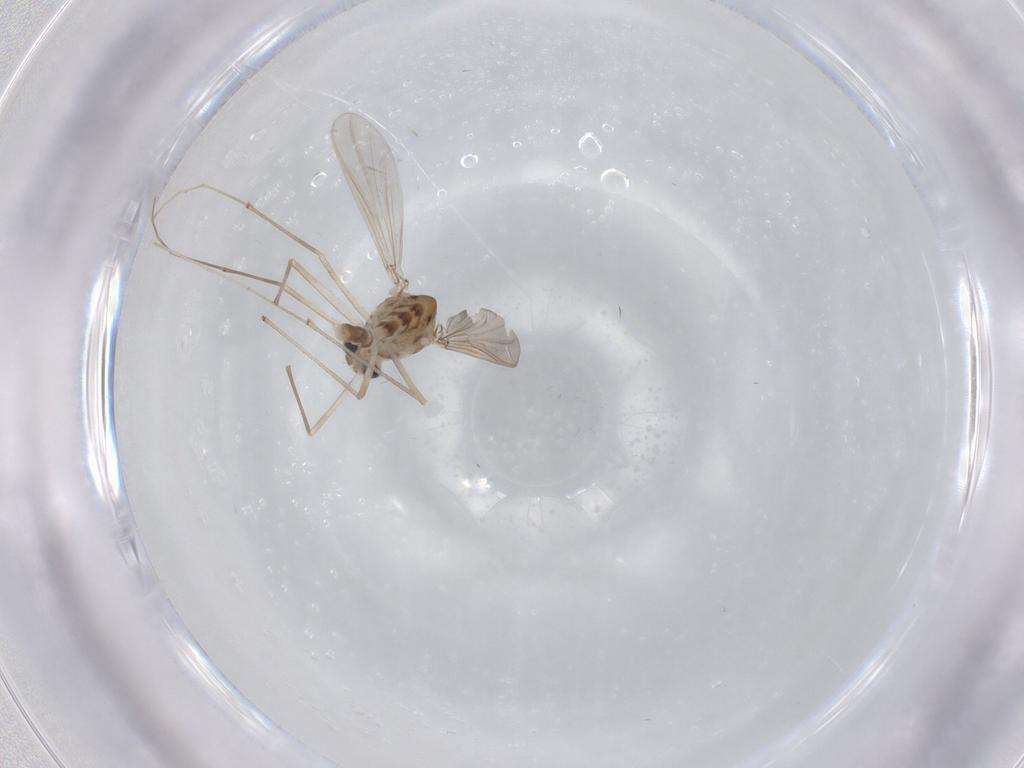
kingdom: Animalia
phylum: Arthropoda
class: Insecta
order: Diptera
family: Chironomidae
